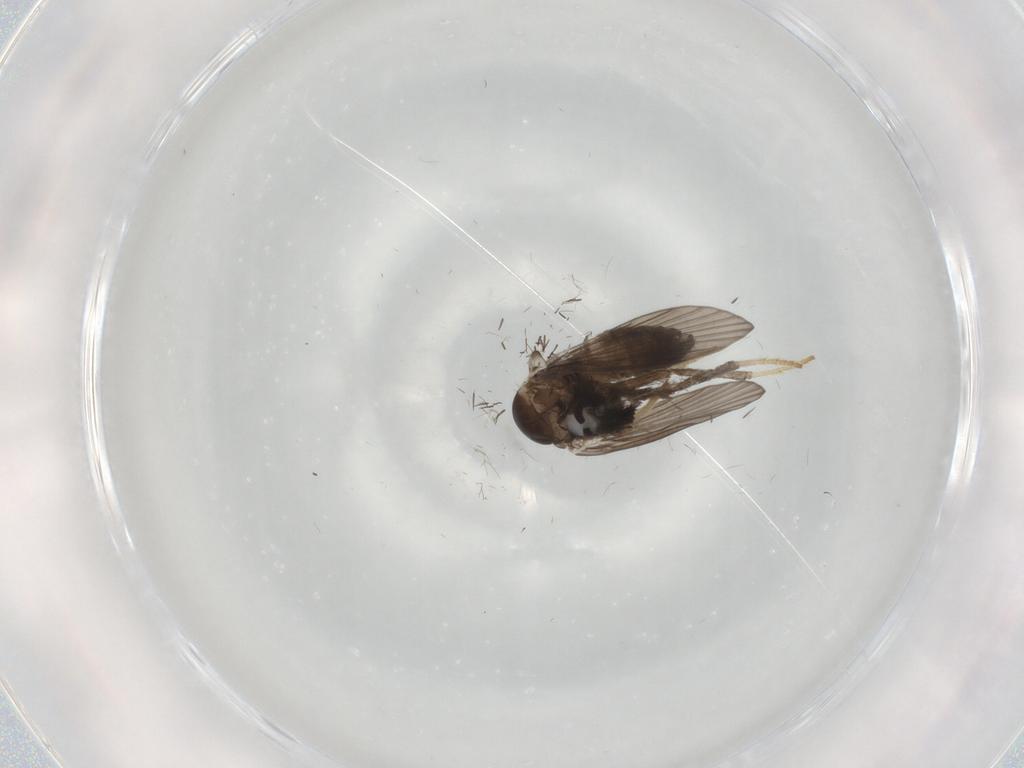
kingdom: Animalia
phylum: Arthropoda
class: Insecta
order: Diptera
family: Psychodidae
